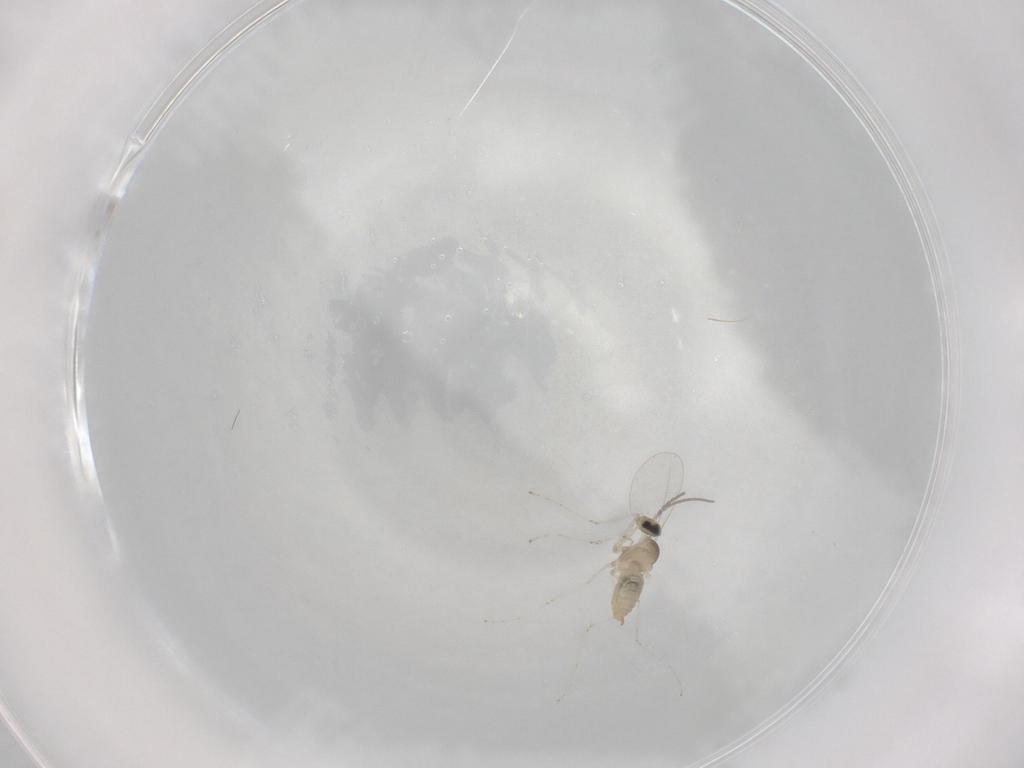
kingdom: Animalia
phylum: Arthropoda
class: Insecta
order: Diptera
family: Cecidomyiidae
